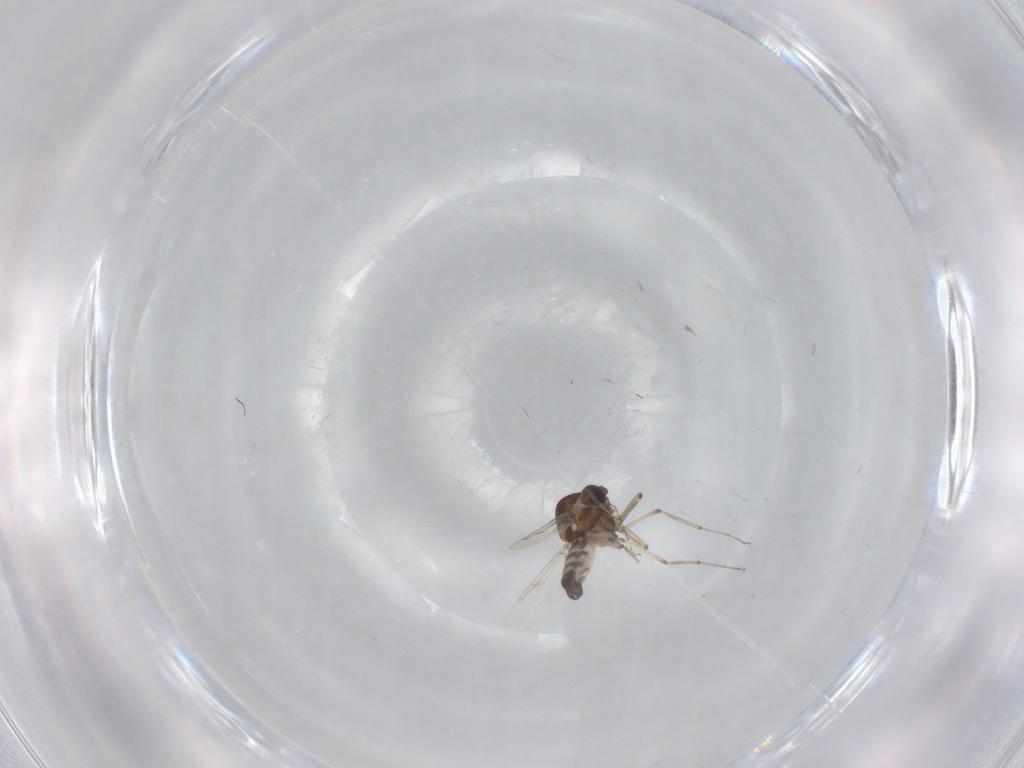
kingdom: Animalia
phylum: Arthropoda
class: Insecta
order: Diptera
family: Ceratopogonidae
